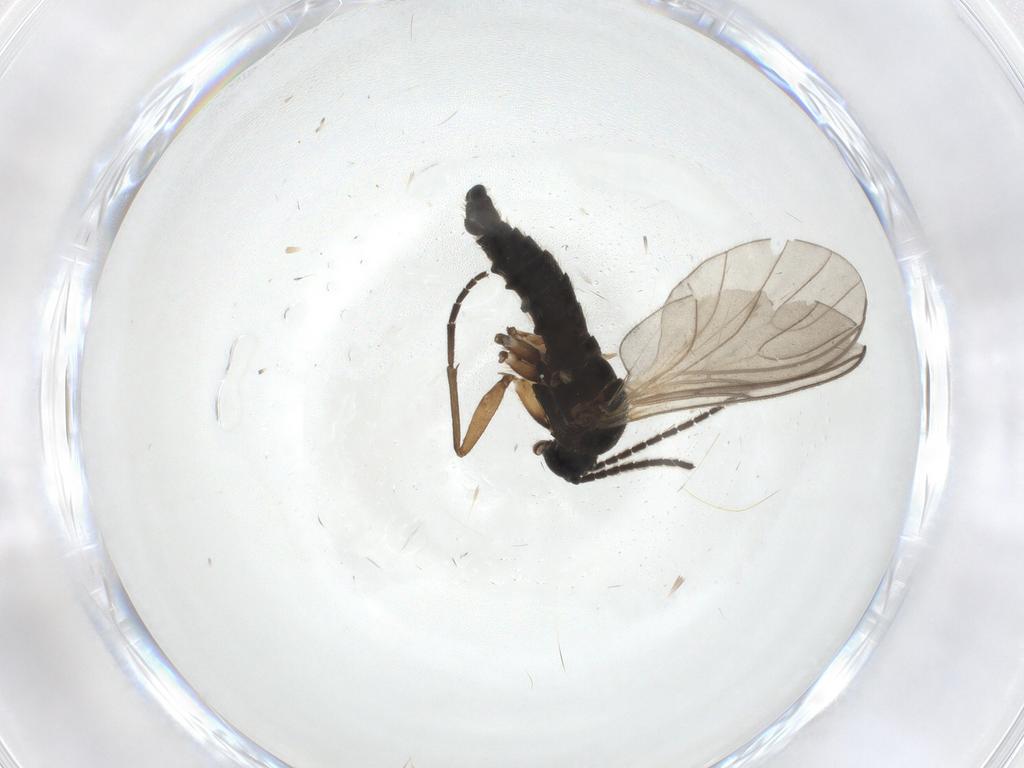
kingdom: Animalia
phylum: Arthropoda
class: Insecta
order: Diptera
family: Sciaridae
